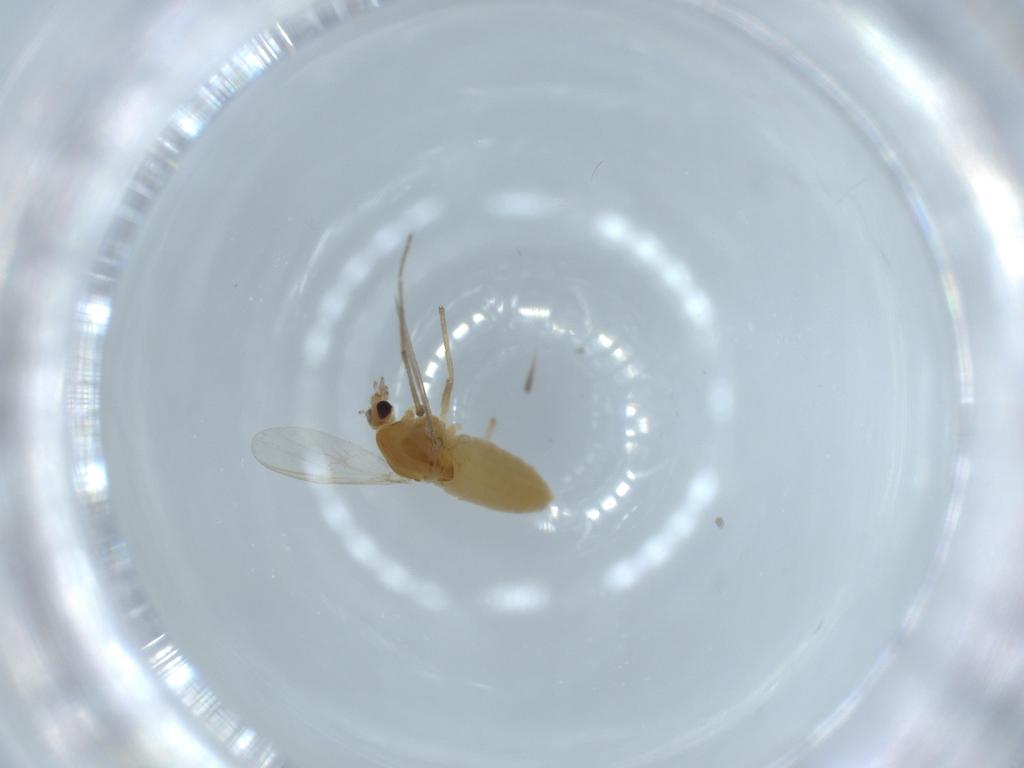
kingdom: Animalia
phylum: Arthropoda
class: Insecta
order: Diptera
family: Chironomidae
